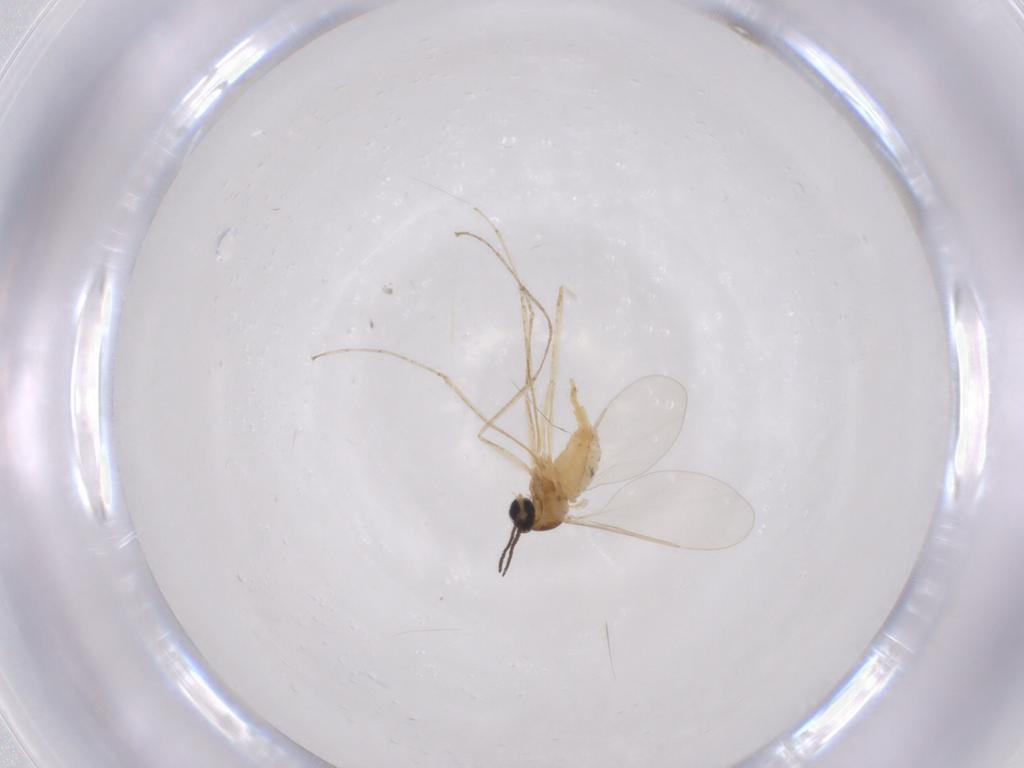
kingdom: Animalia
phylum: Arthropoda
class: Insecta
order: Diptera
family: Cecidomyiidae
